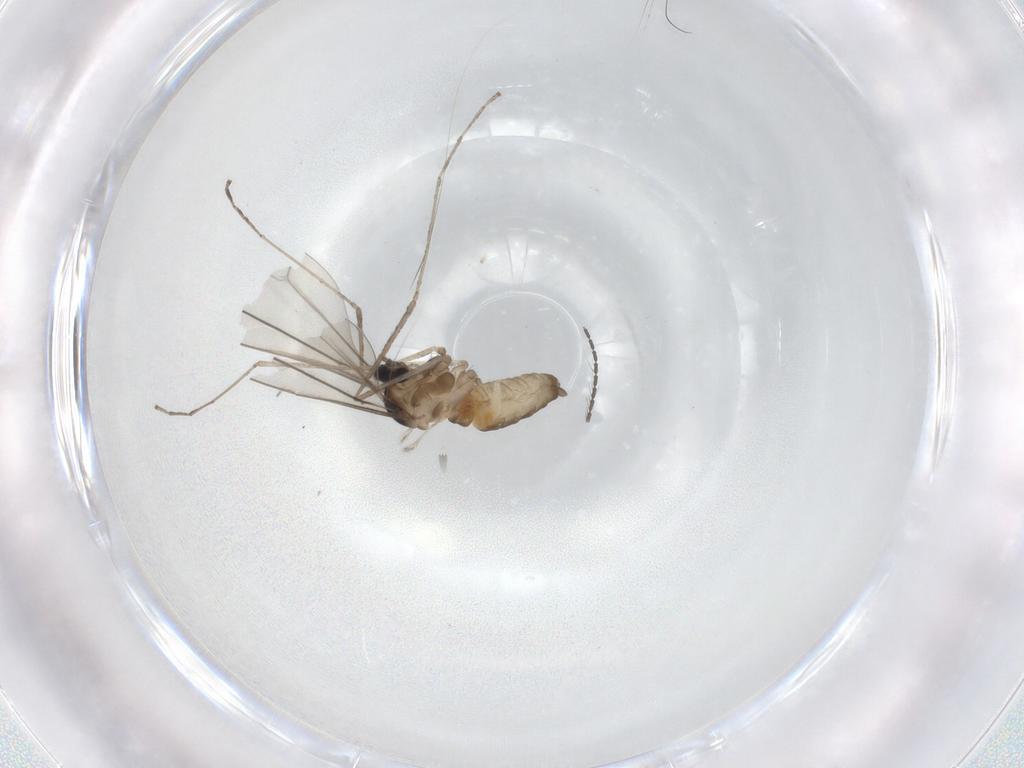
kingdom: Animalia
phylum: Arthropoda
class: Insecta
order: Diptera
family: Cecidomyiidae
